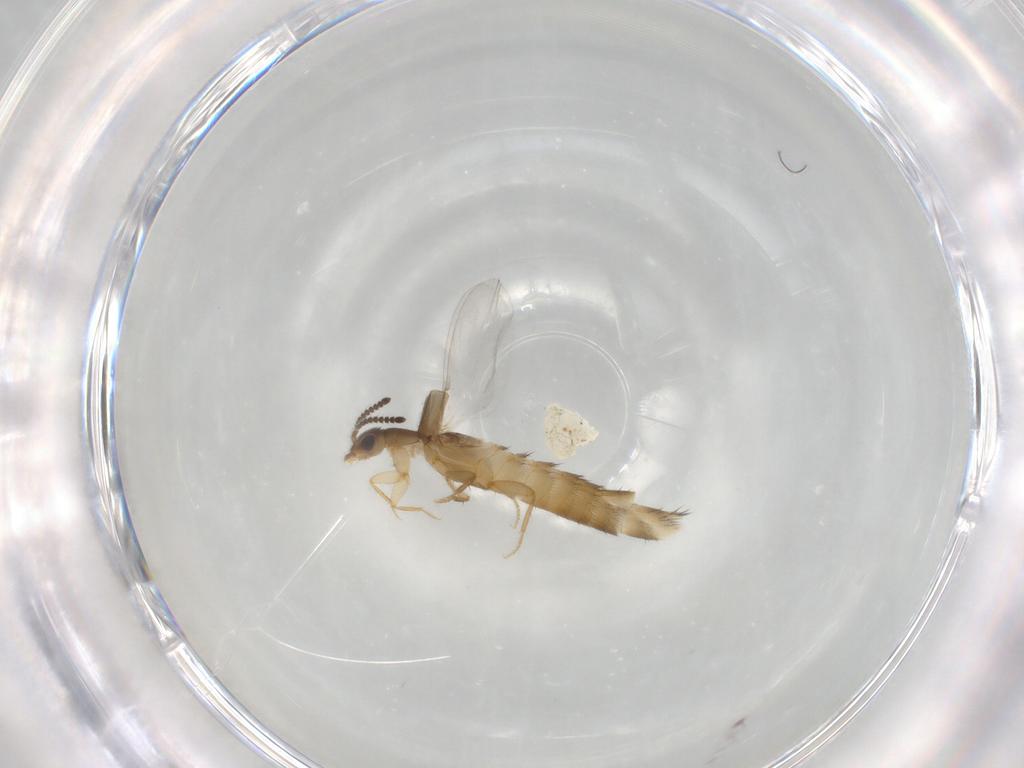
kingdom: Animalia
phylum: Arthropoda
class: Insecta
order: Coleoptera
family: Staphylinidae
